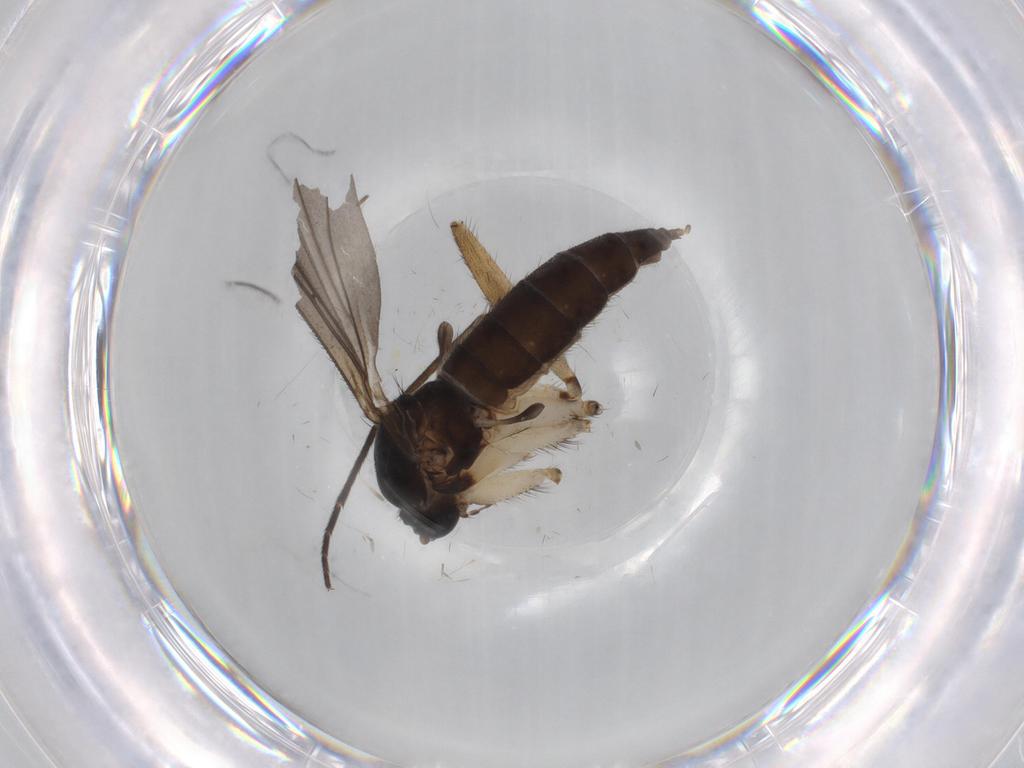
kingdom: Animalia
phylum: Arthropoda
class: Insecta
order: Diptera
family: Sciaridae
